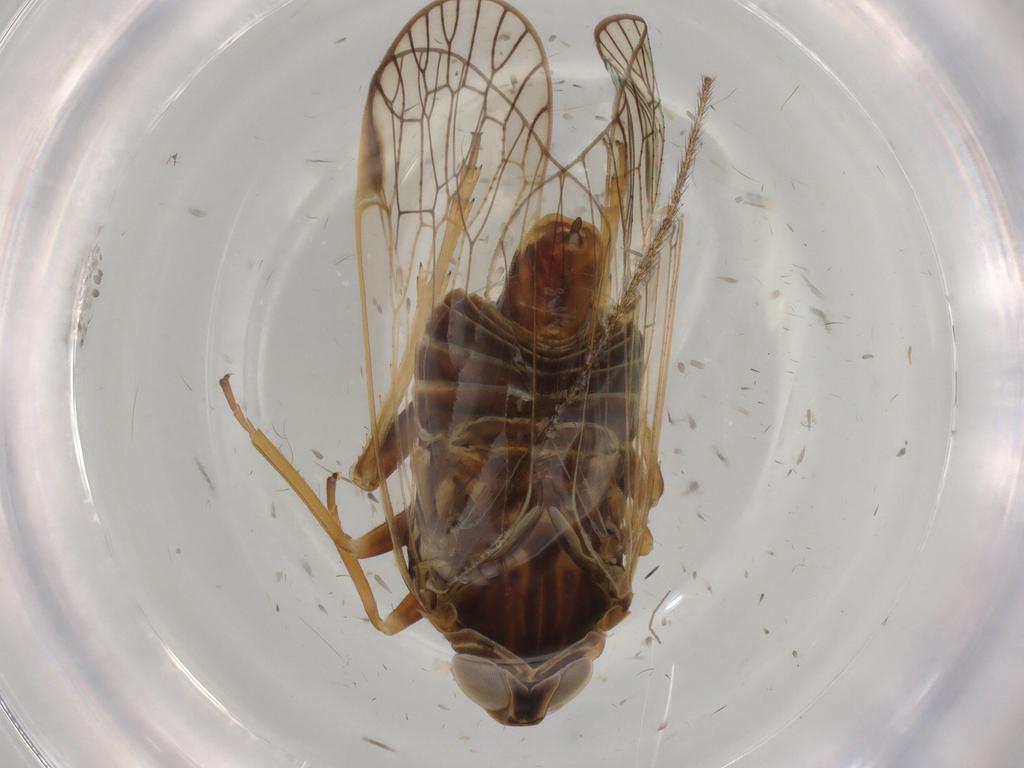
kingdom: Animalia
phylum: Arthropoda
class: Insecta
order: Hemiptera
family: Cixiidae
